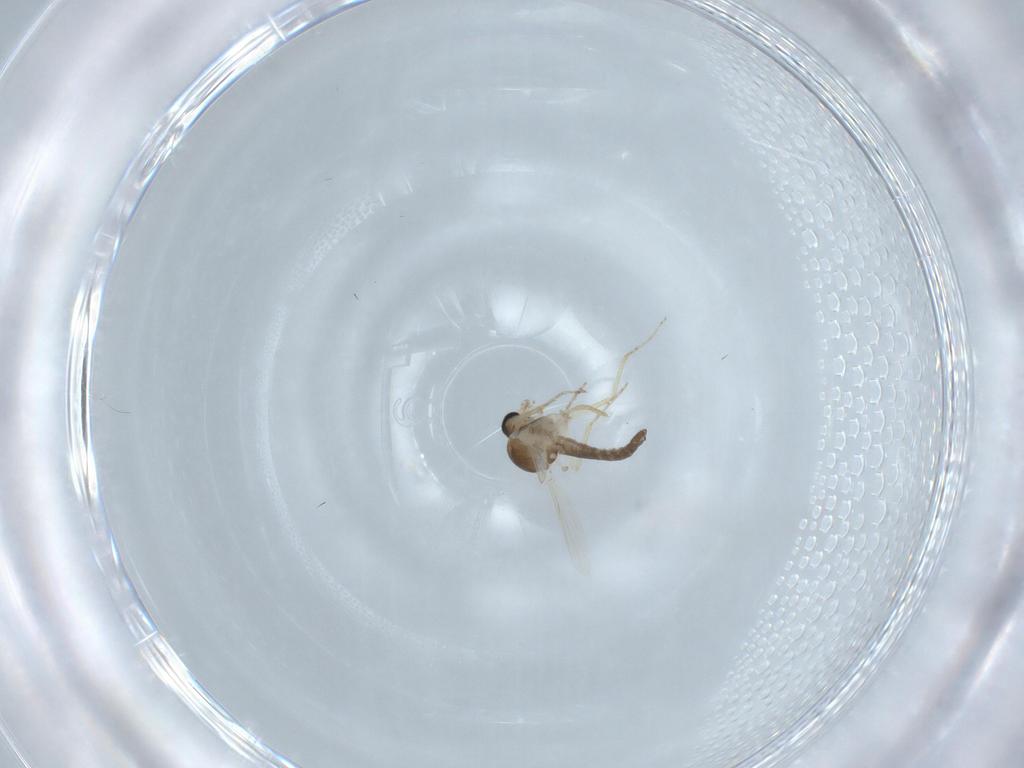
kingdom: Animalia
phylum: Arthropoda
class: Insecta
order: Diptera
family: Ceratopogonidae
